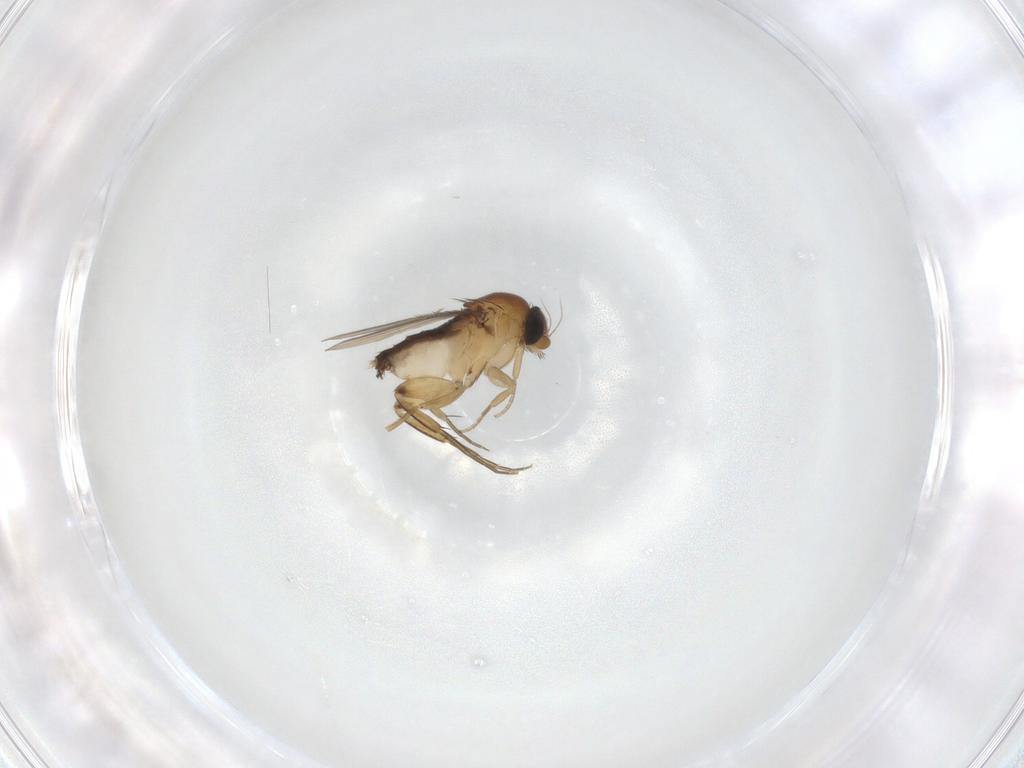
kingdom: Animalia
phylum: Arthropoda
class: Insecta
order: Diptera
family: Phoridae
